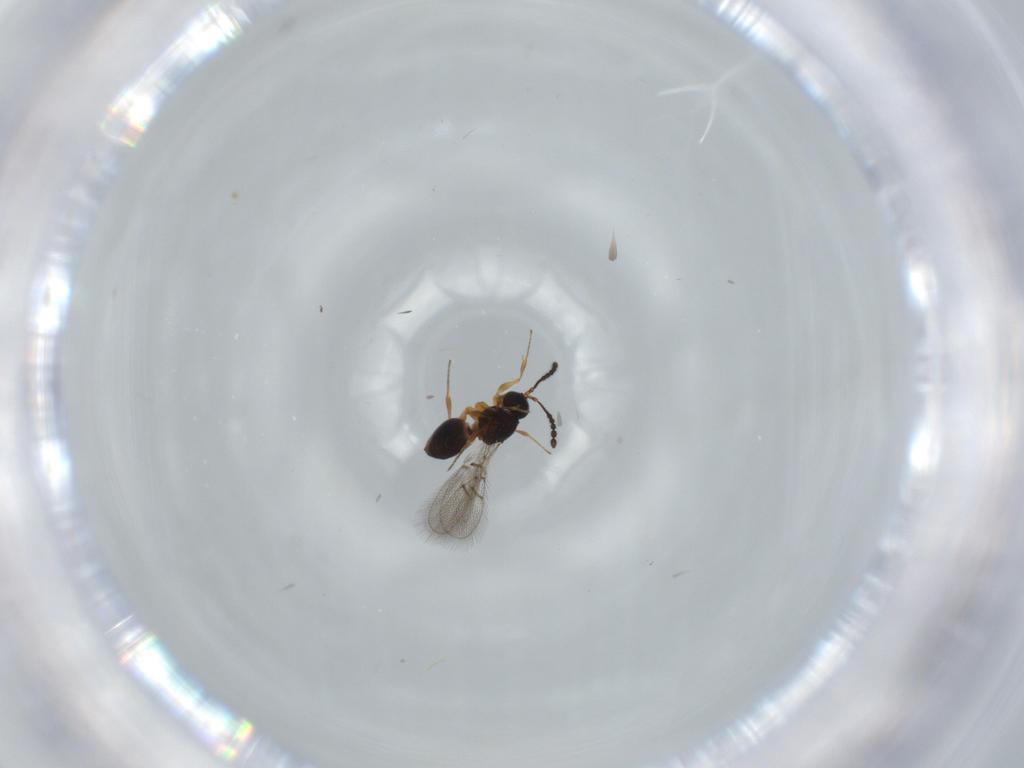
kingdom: Animalia
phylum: Arthropoda
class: Insecta
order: Hymenoptera
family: Figitidae
